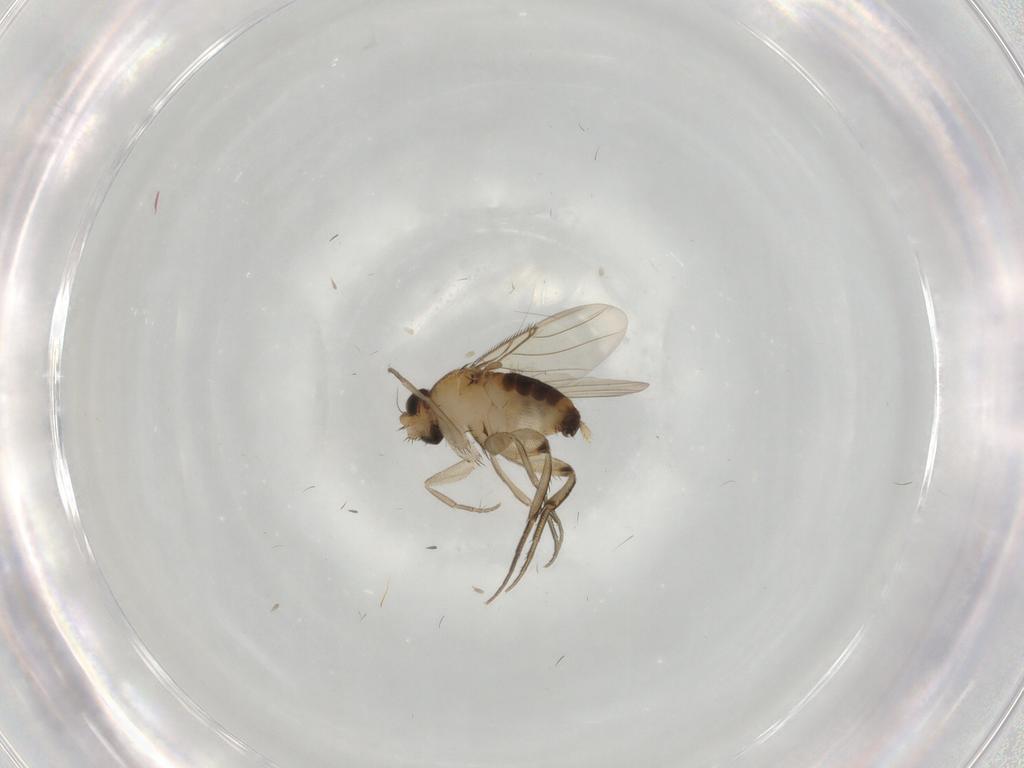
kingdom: Animalia
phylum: Arthropoda
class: Insecta
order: Diptera
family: Phoridae
